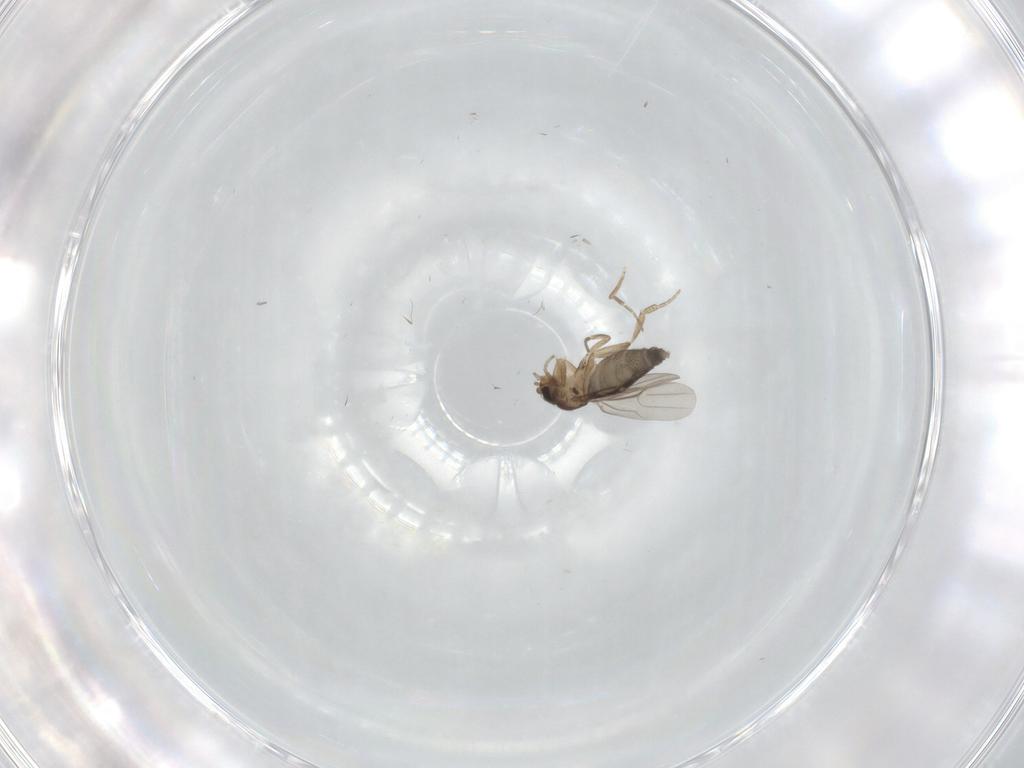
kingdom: Animalia
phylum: Arthropoda
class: Insecta
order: Diptera
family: Phoridae
